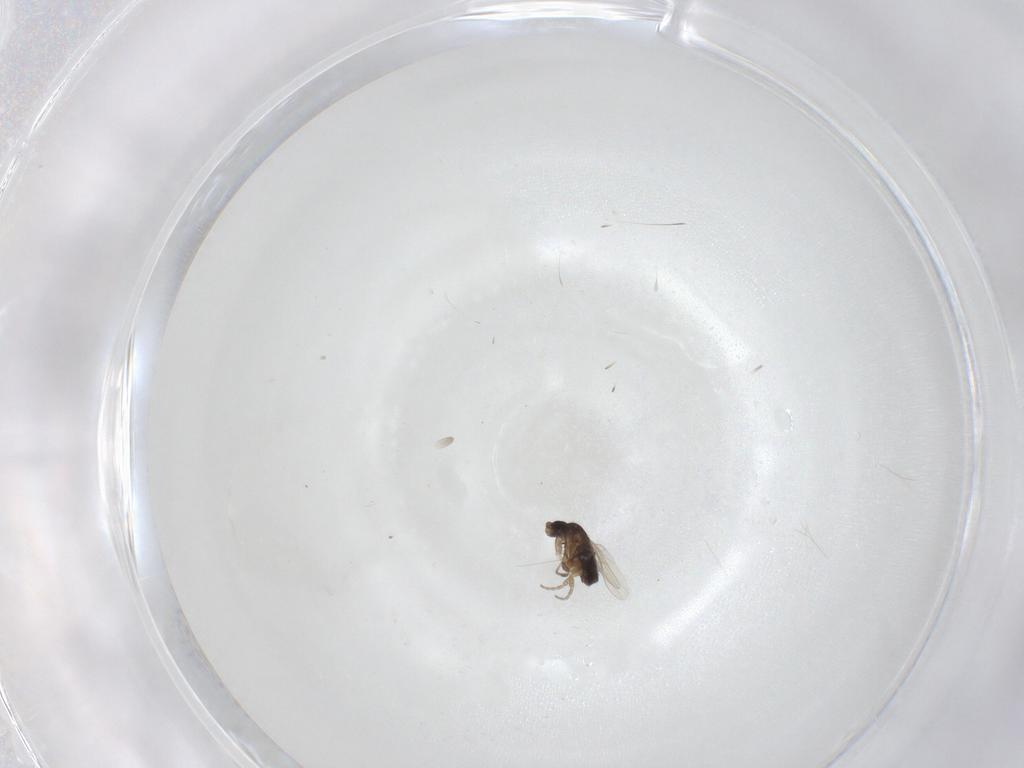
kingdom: Animalia
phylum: Arthropoda
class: Insecta
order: Diptera
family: Phoridae
